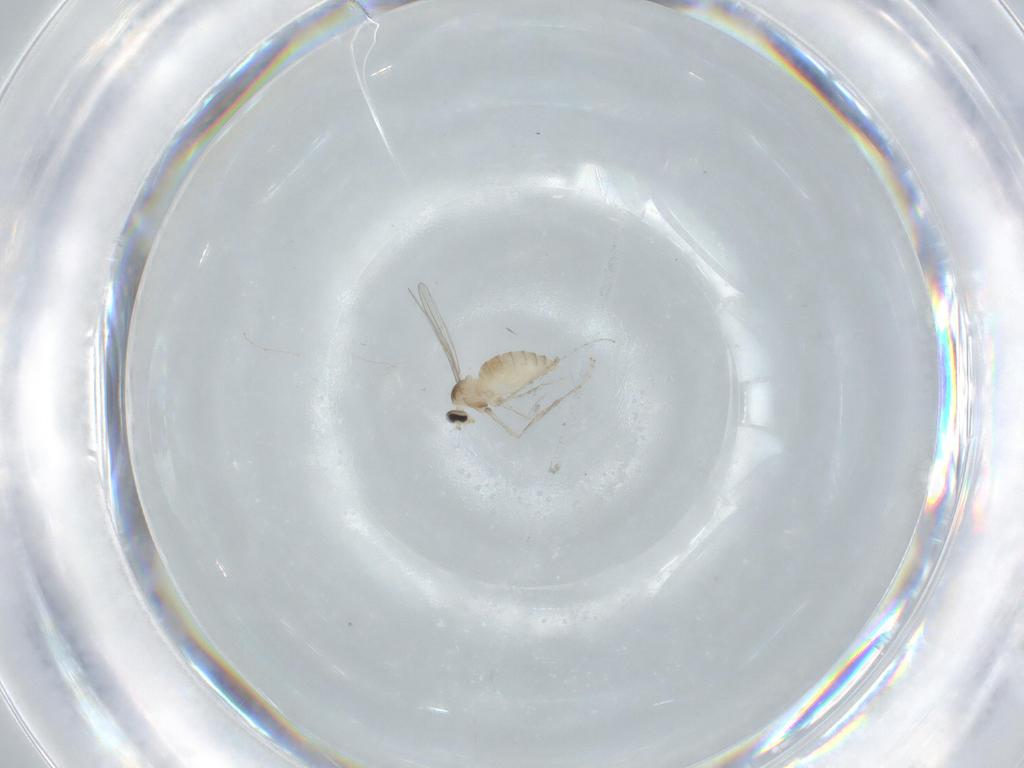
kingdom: Animalia
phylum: Arthropoda
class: Insecta
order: Diptera
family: Cecidomyiidae
